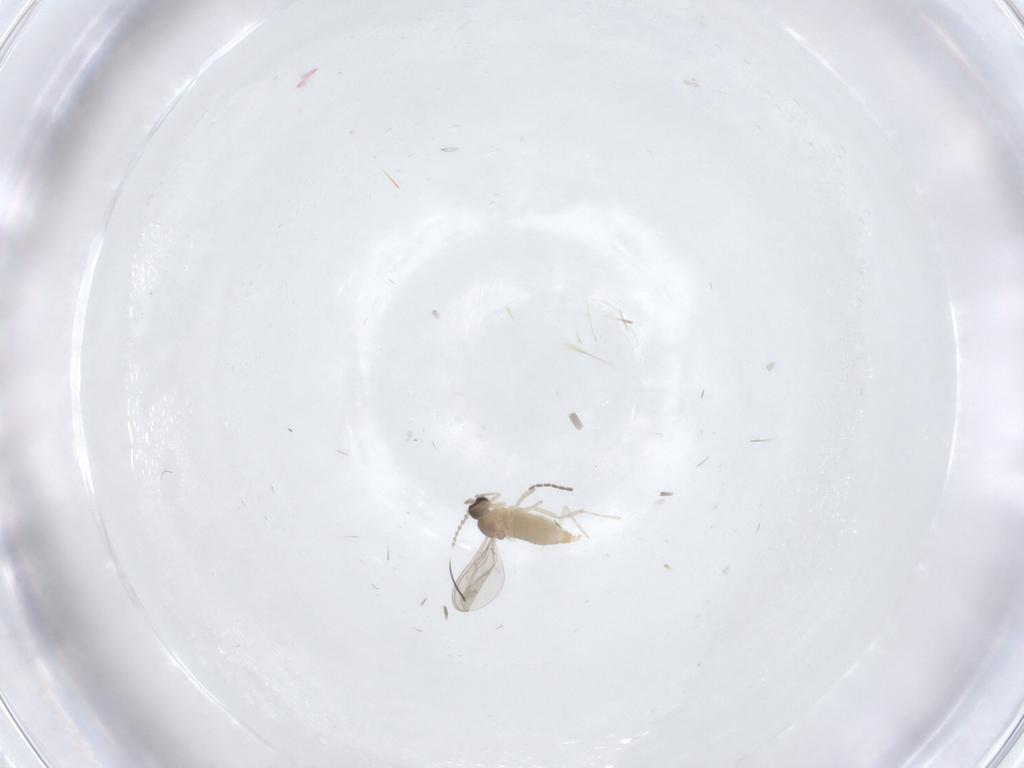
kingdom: Animalia
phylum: Arthropoda
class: Insecta
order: Diptera
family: Cecidomyiidae
